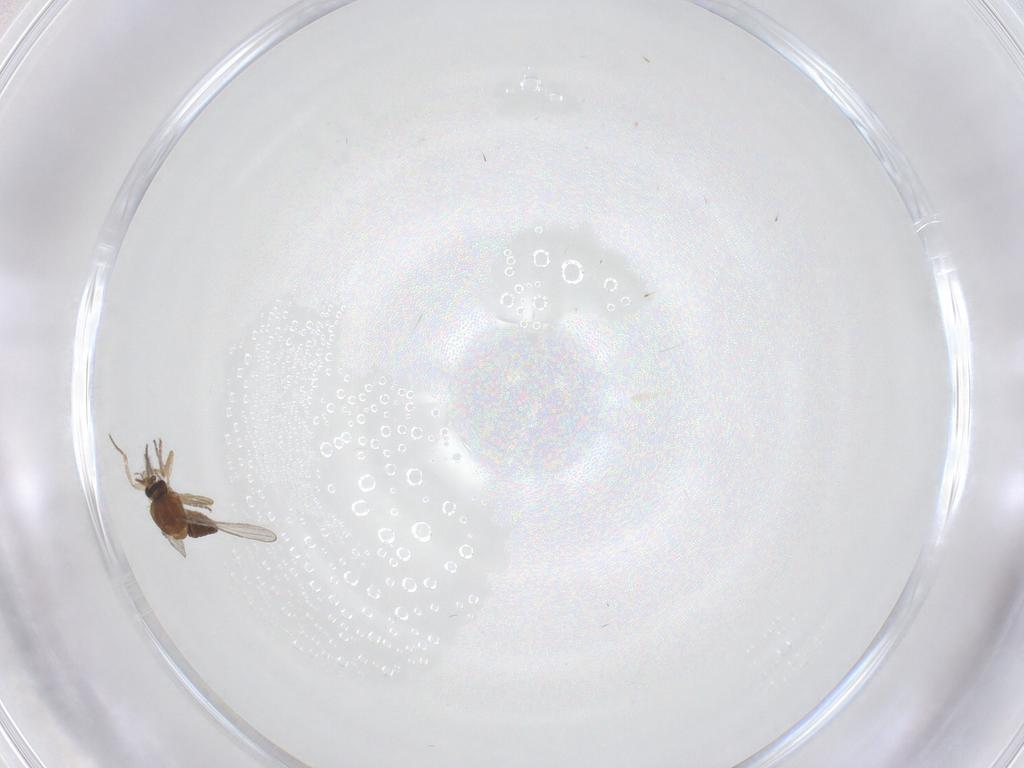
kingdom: Animalia
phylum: Arthropoda
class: Insecta
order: Diptera
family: Ceratopogonidae
